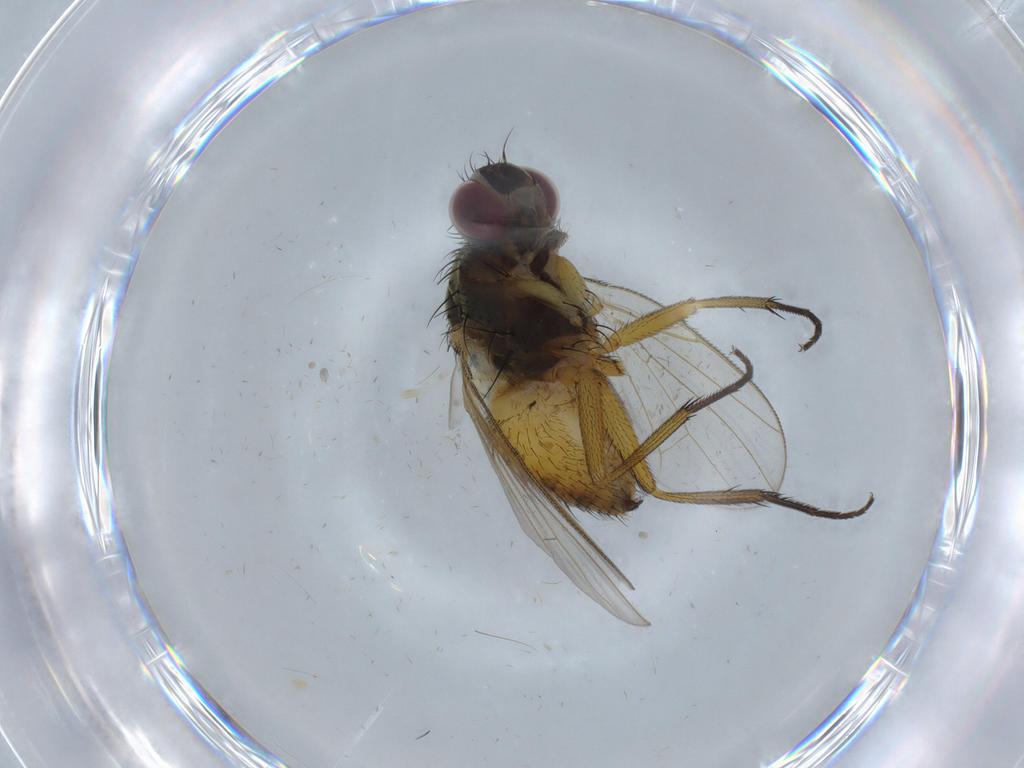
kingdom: Animalia
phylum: Arthropoda
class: Insecta
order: Diptera
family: Muscidae
